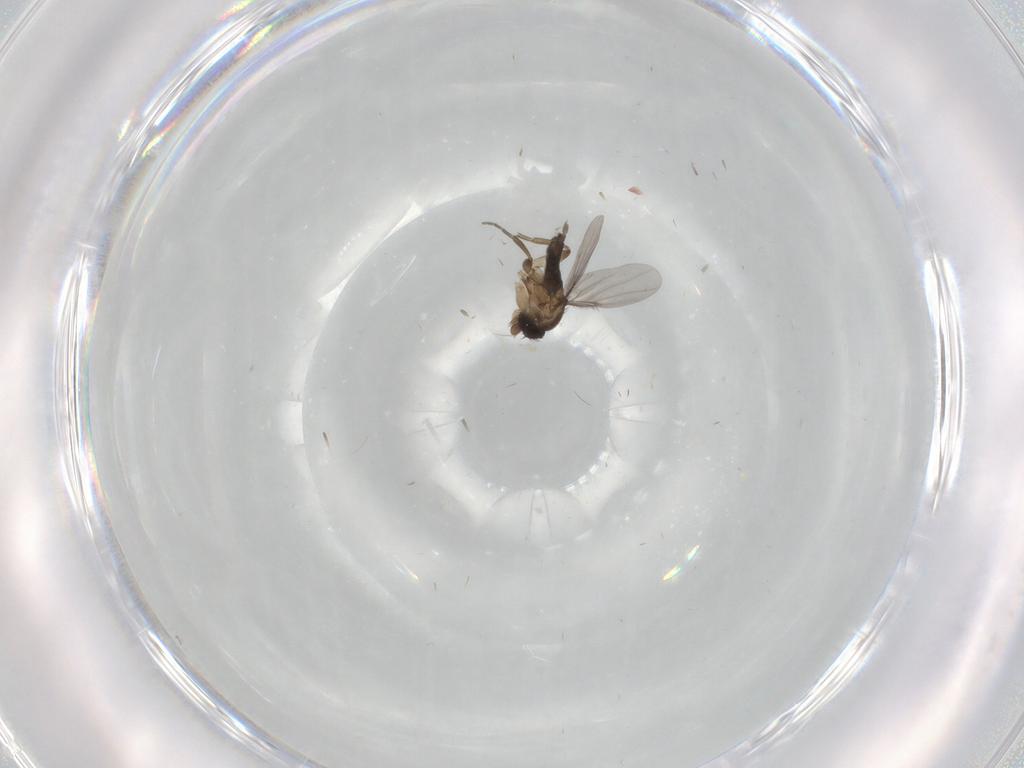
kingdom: Animalia
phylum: Arthropoda
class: Insecta
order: Diptera
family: Phoridae
